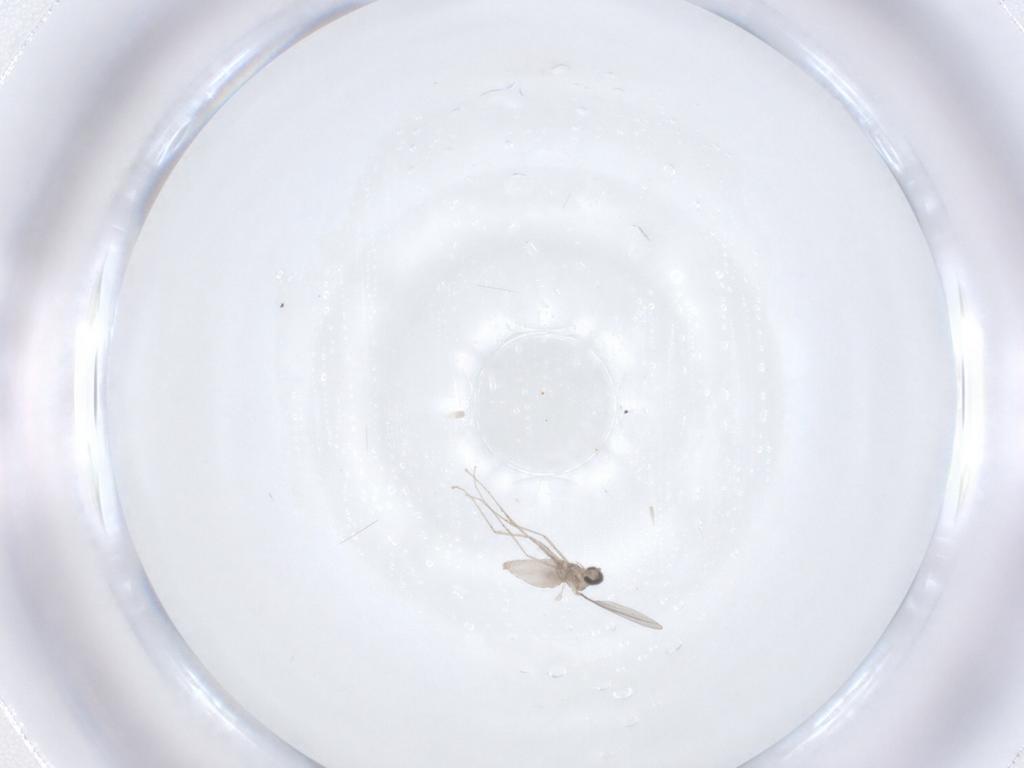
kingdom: Animalia
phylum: Arthropoda
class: Insecta
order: Diptera
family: Cecidomyiidae
